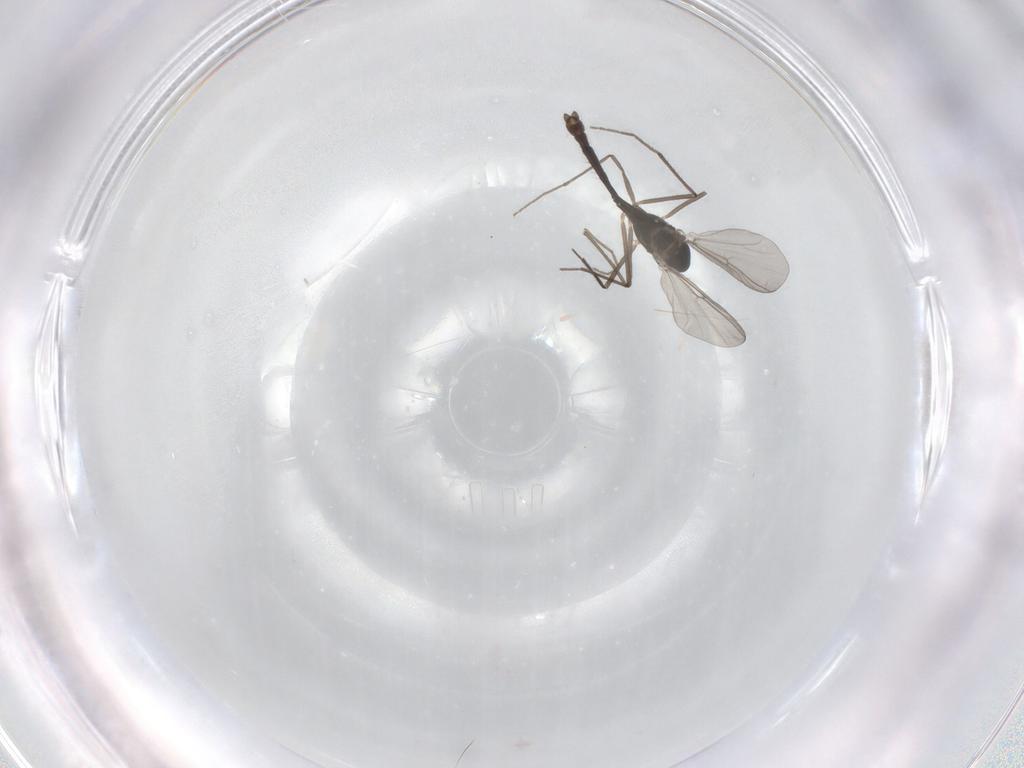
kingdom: Animalia
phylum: Arthropoda
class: Insecta
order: Diptera
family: Chironomidae
